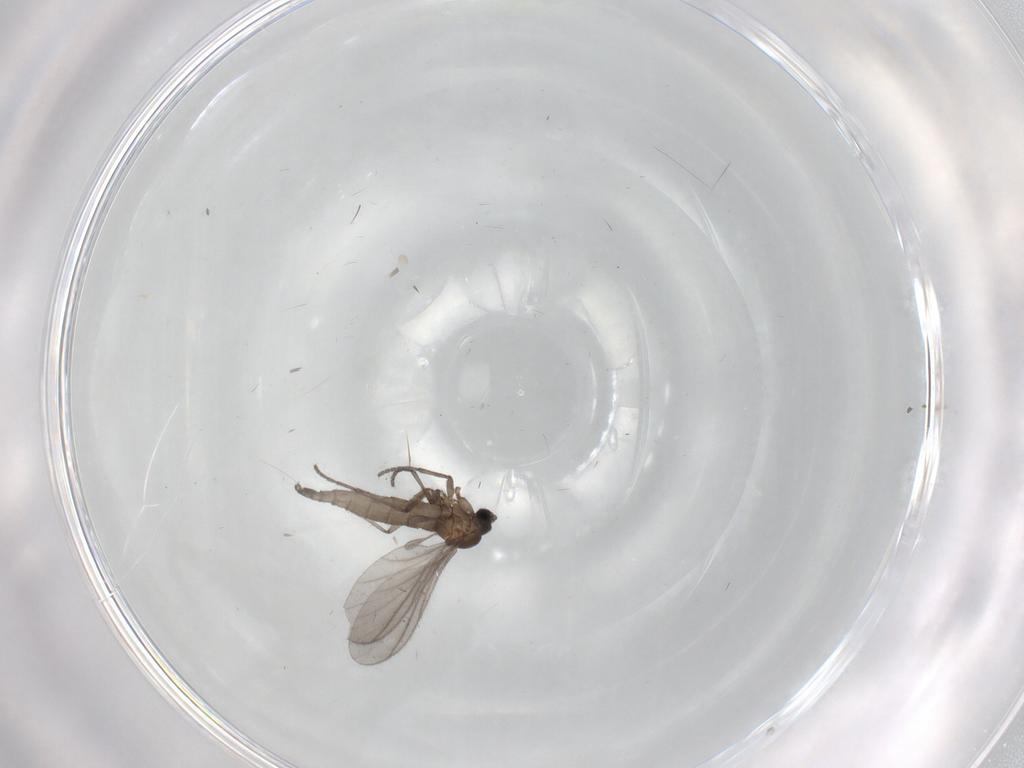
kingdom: Animalia
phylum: Arthropoda
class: Insecta
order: Diptera
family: Sciaridae
